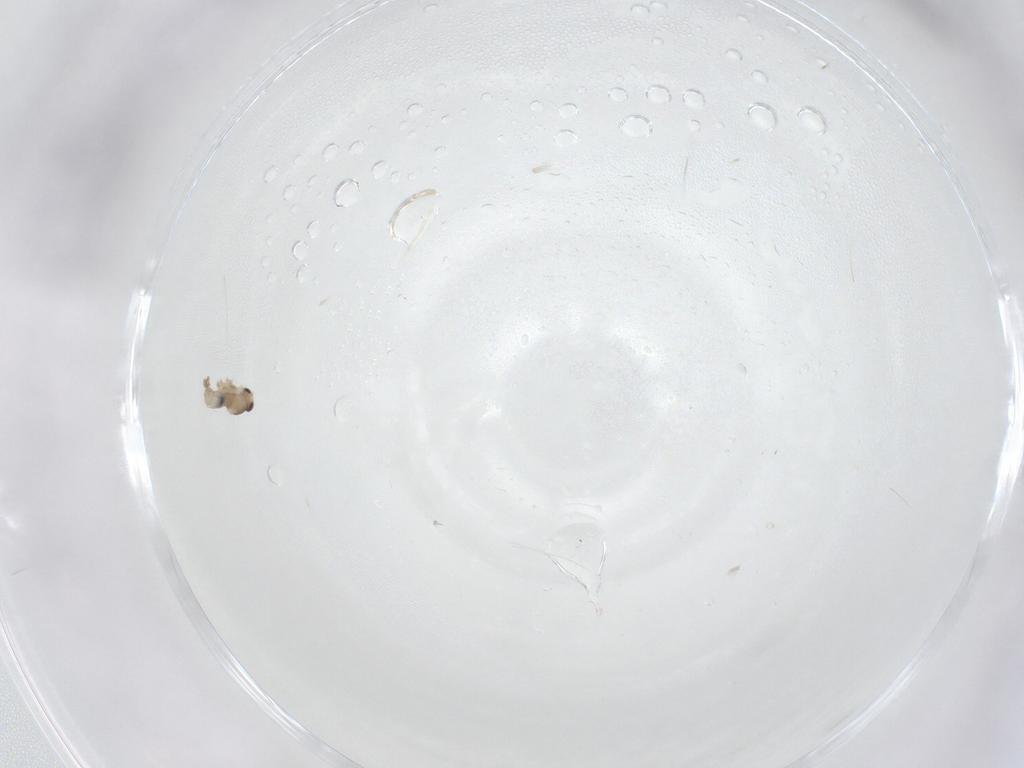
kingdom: Animalia
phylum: Arthropoda
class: Insecta
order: Diptera
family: Cecidomyiidae
